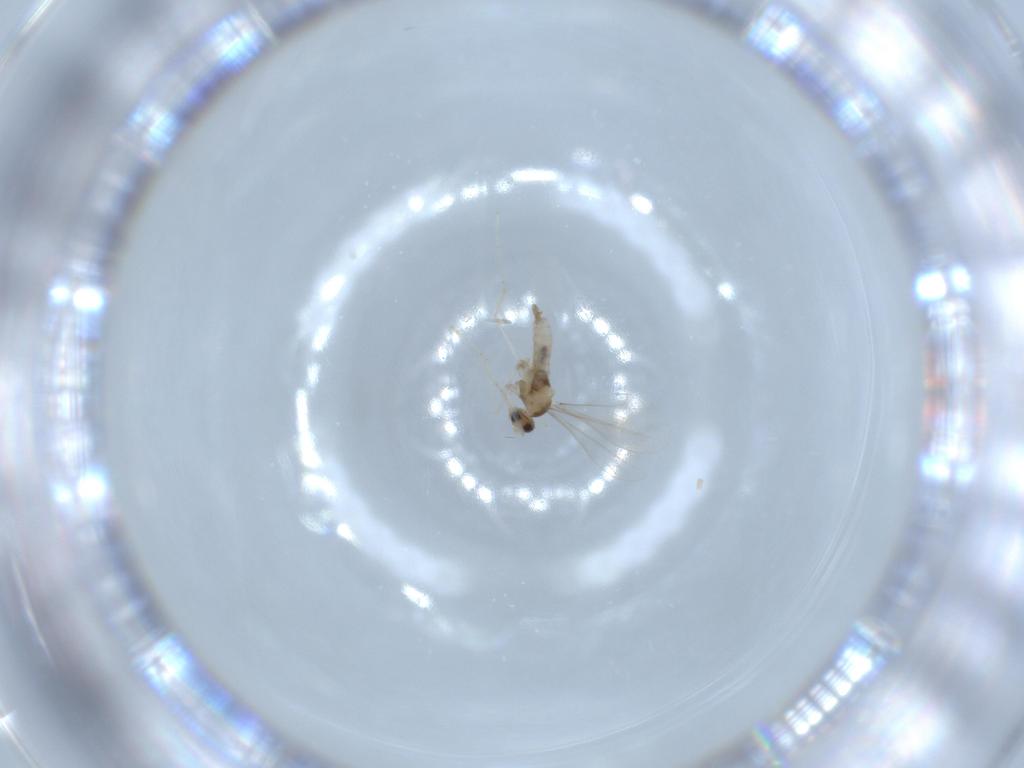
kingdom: Animalia
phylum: Arthropoda
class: Insecta
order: Diptera
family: Cecidomyiidae
